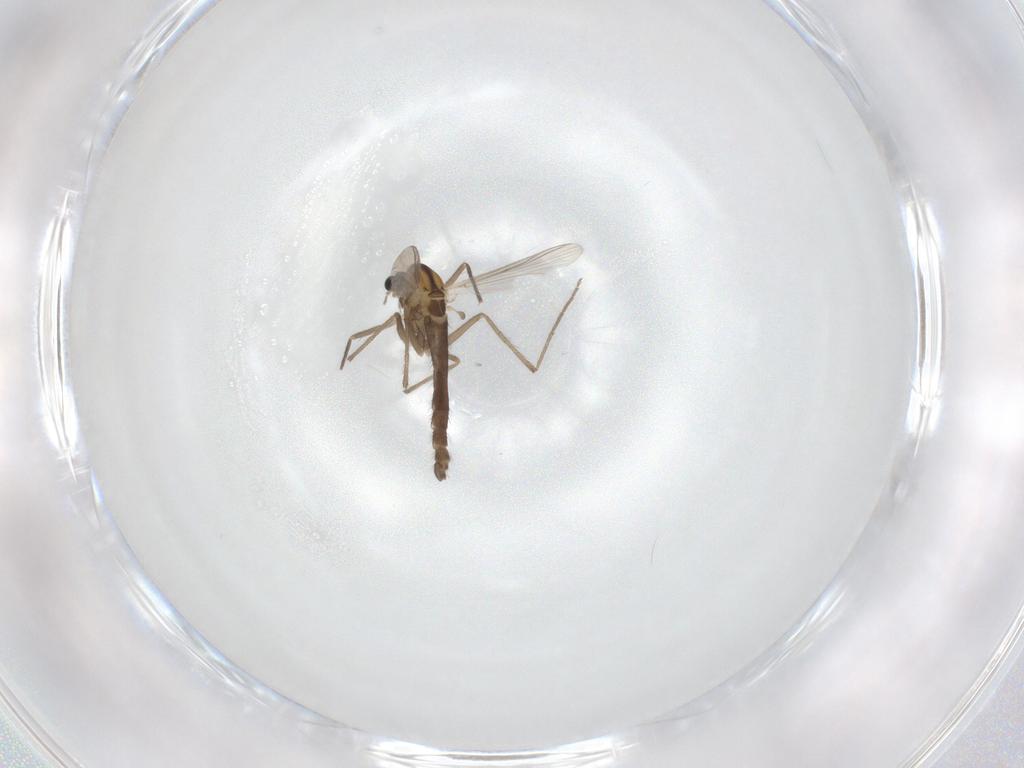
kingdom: Animalia
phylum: Arthropoda
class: Insecta
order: Diptera
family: Chironomidae
